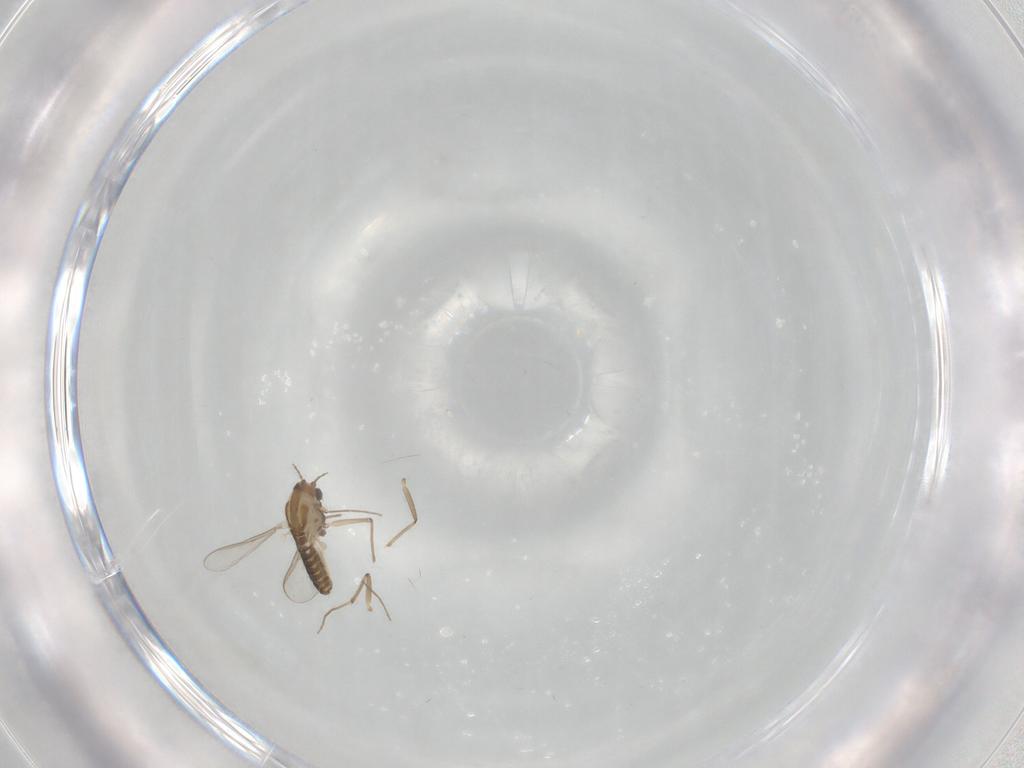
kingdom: Animalia
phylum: Arthropoda
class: Insecta
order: Diptera
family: Chironomidae
